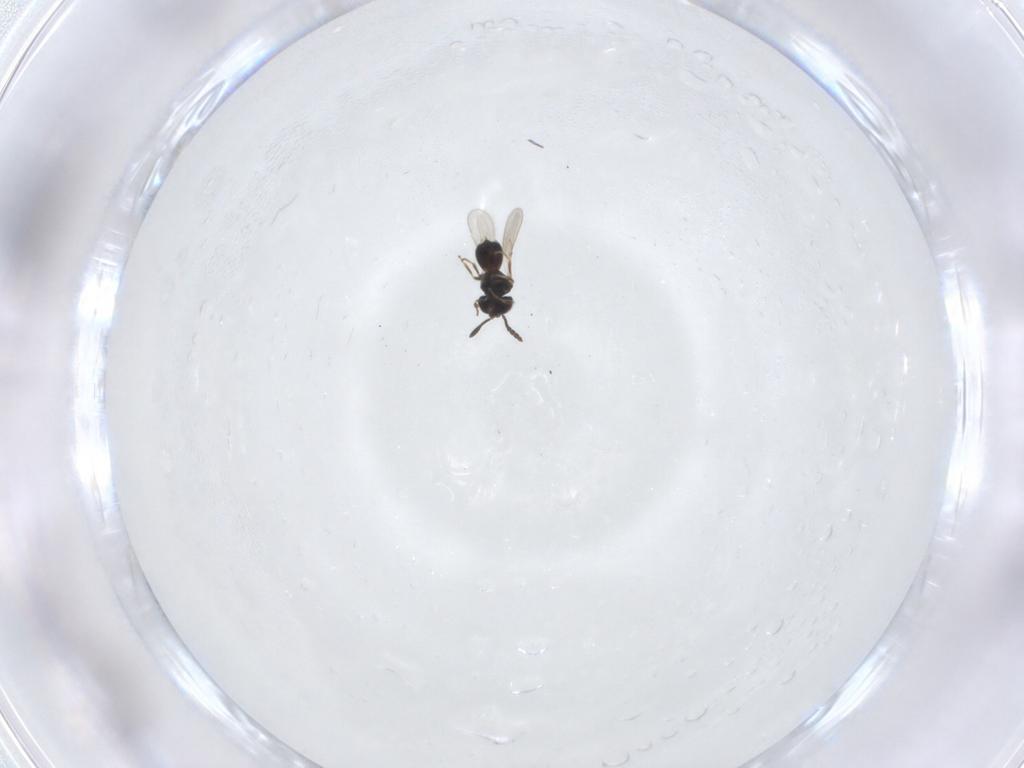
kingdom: Animalia
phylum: Arthropoda
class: Insecta
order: Hymenoptera
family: Scelionidae
